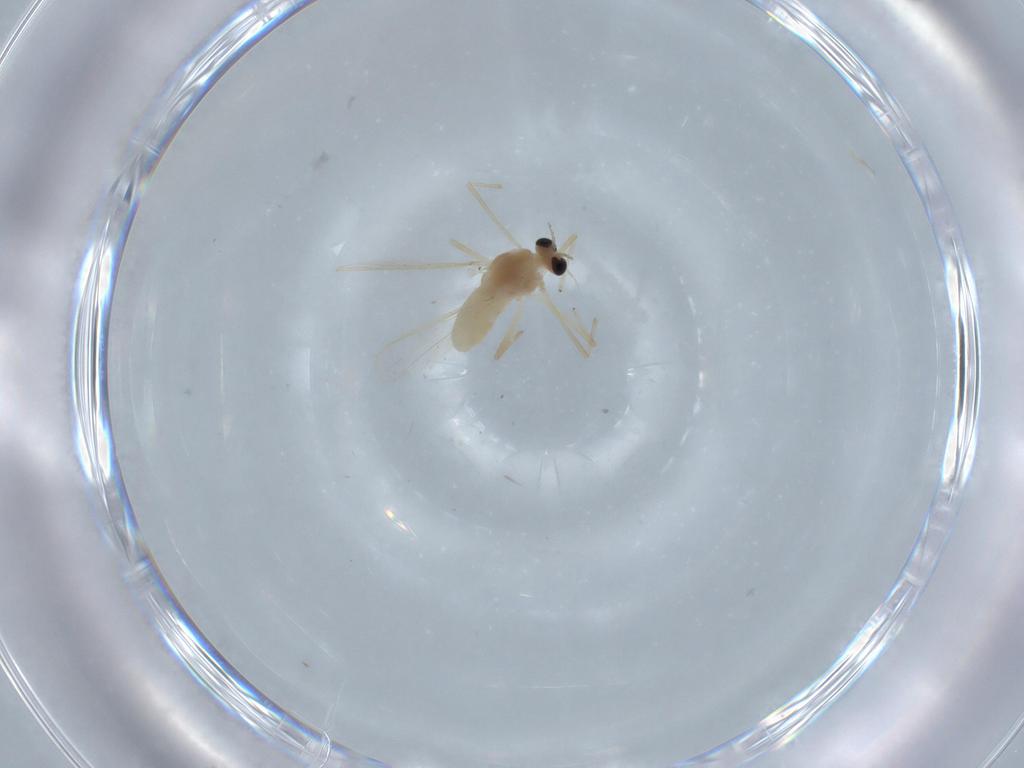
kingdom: Animalia
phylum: Arthropoda
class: Insecta
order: Diptera
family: Chironomidae
